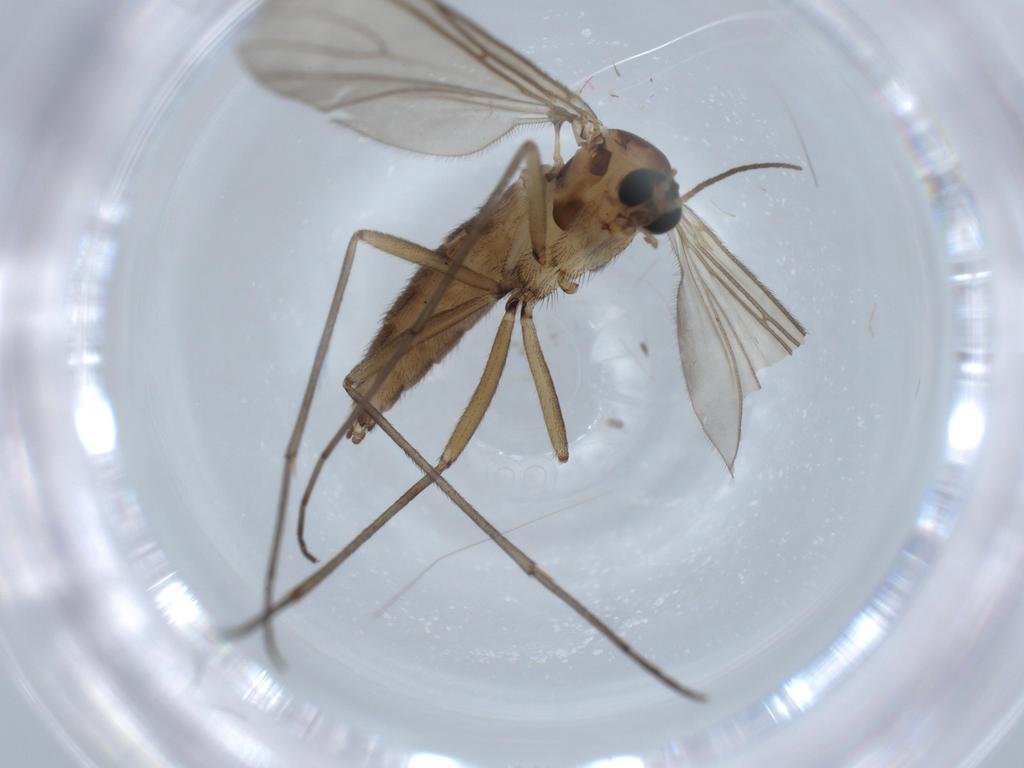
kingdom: Animalia
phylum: Arthropoda
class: Insecta
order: Diptera
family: Sciaridae
